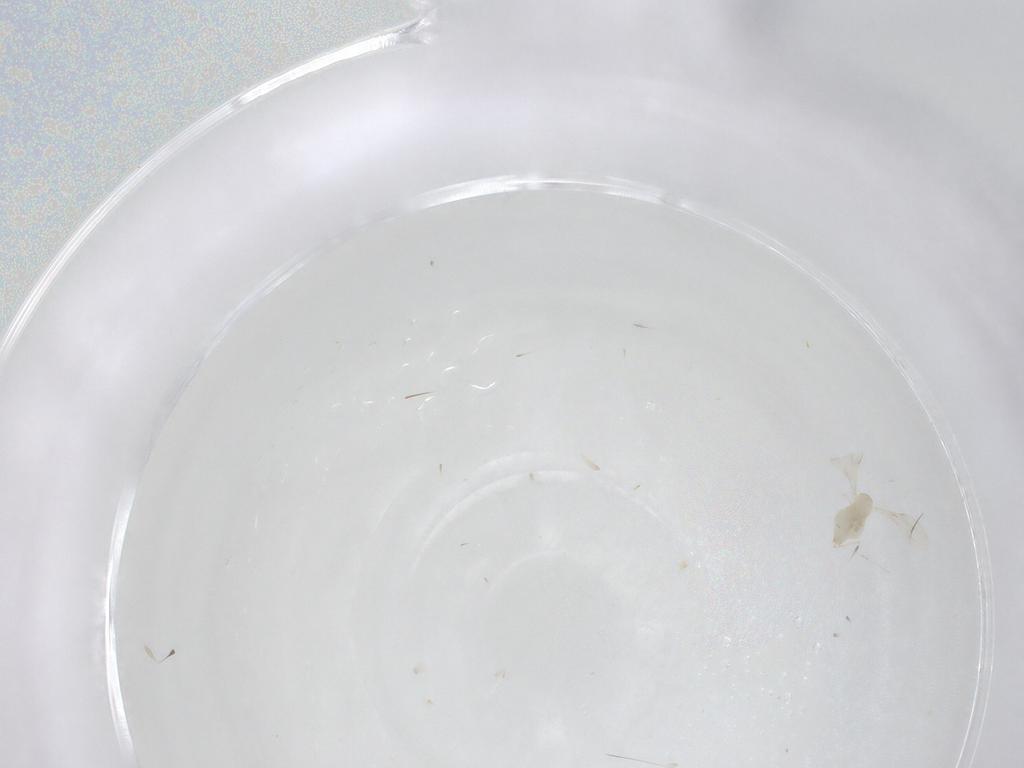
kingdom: Animalia
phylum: Arthropoda
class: Insecta
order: Diptera
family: Cecidomyiidae
